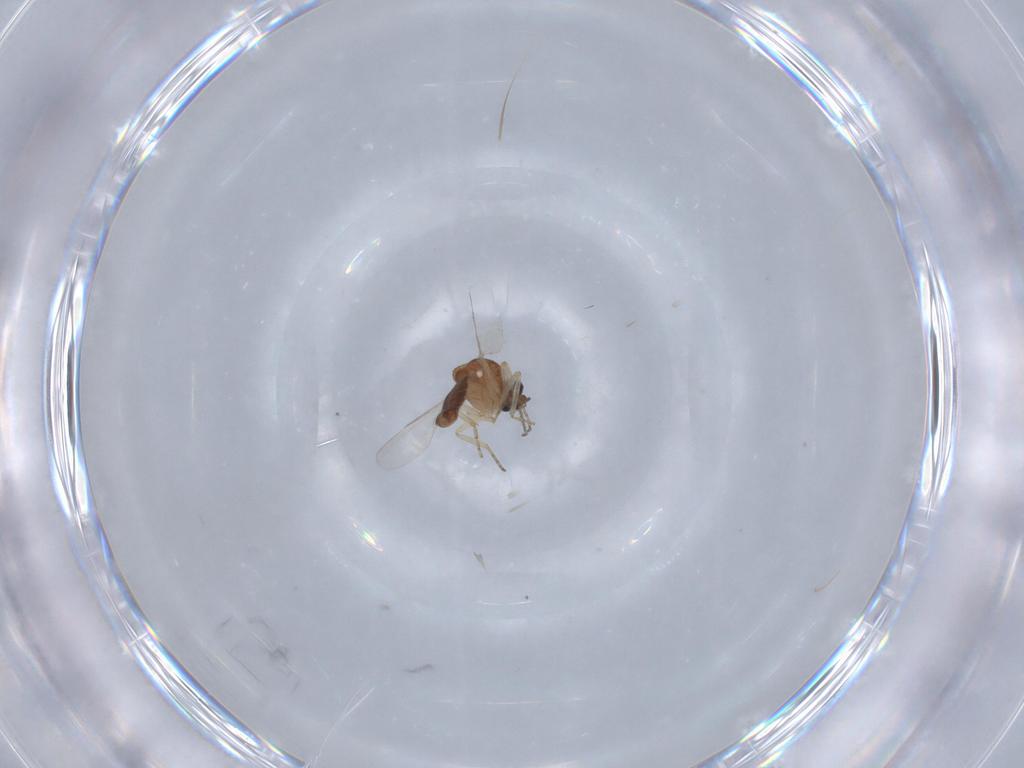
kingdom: Animalia
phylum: Arthropoda
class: Insecta
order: Diptera
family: Ceratopogonidae
